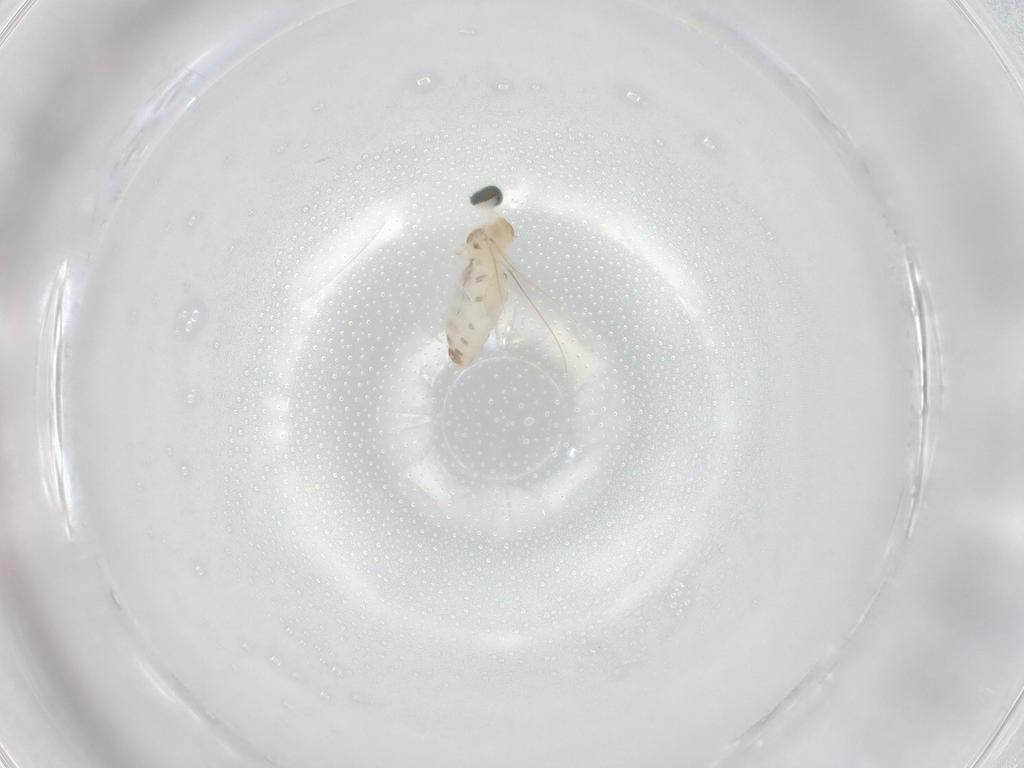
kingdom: Animalia
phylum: Arthropoda
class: Insecta
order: Diptera
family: Cecidomyiidae
